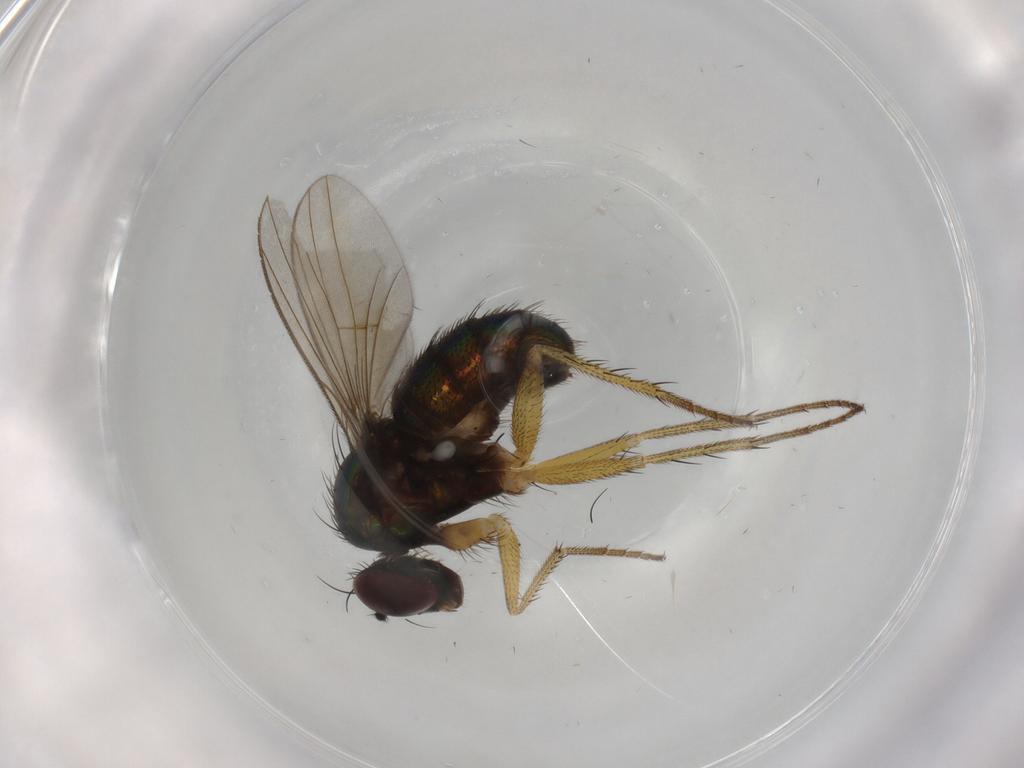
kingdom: Animalia
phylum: Arthropoda
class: Insecta
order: Diptera
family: Dolichopodidae
